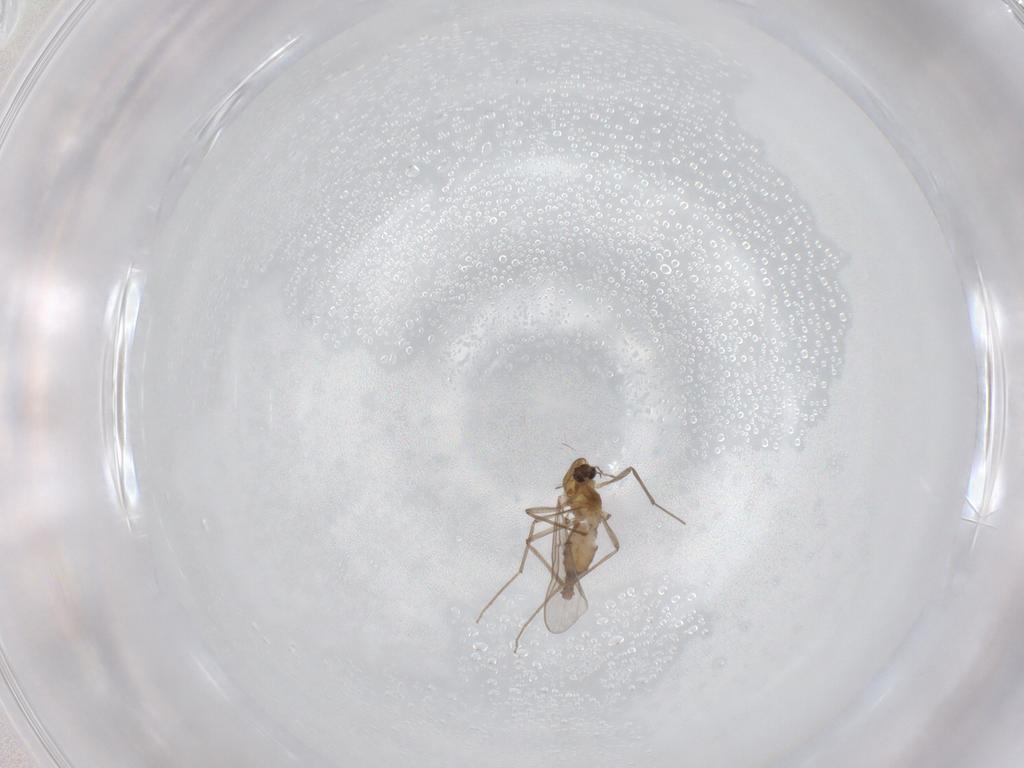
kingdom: Animalia
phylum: Arthropoda
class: Insecta
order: Diptera
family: Chironomidae
